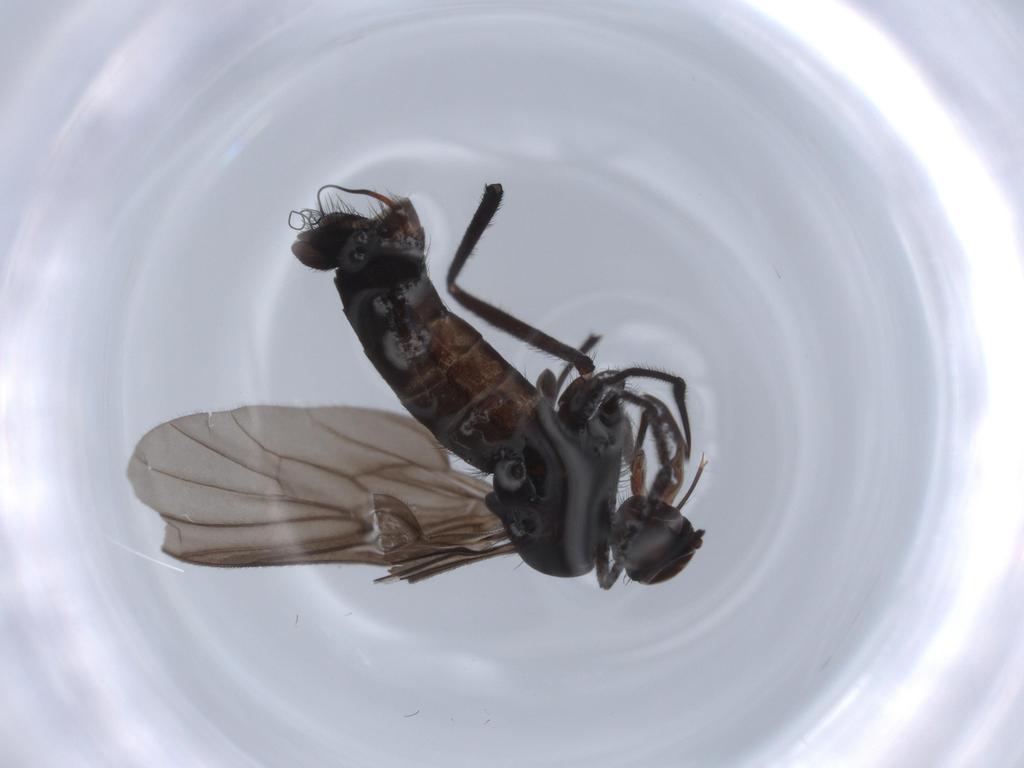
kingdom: Animalia
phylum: Arthropoda
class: Insecta
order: Diptera
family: Empididae
